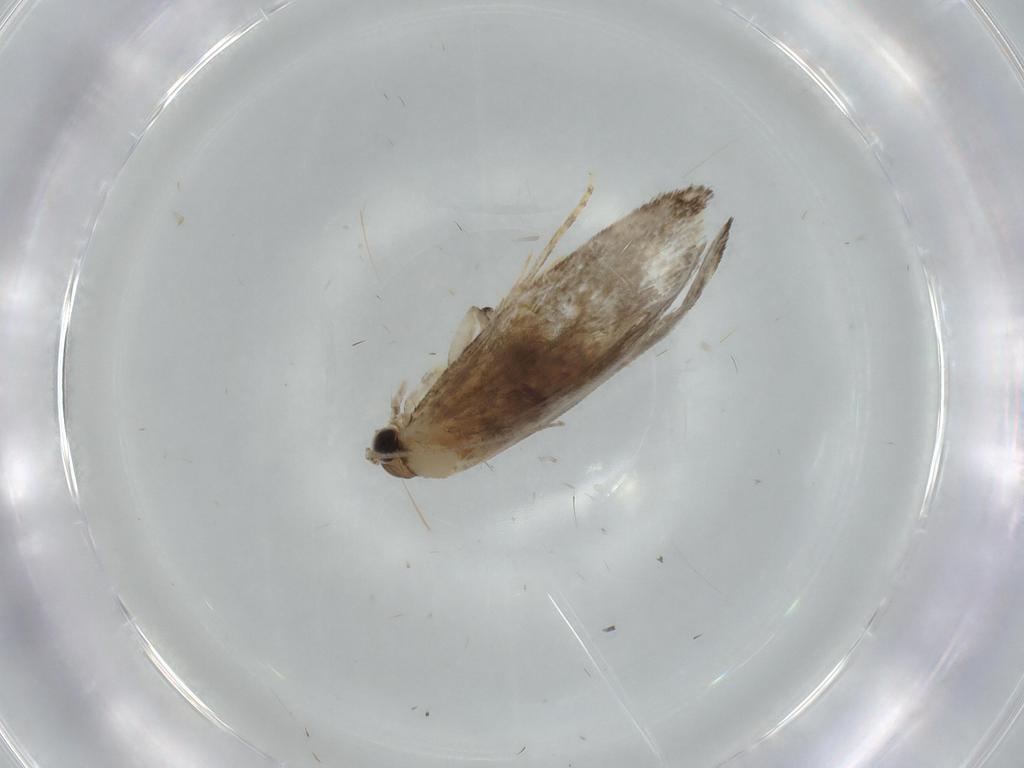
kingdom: Animalia
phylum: Arthropoda
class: Insecta
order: Lepidoptera
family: Tineidae
